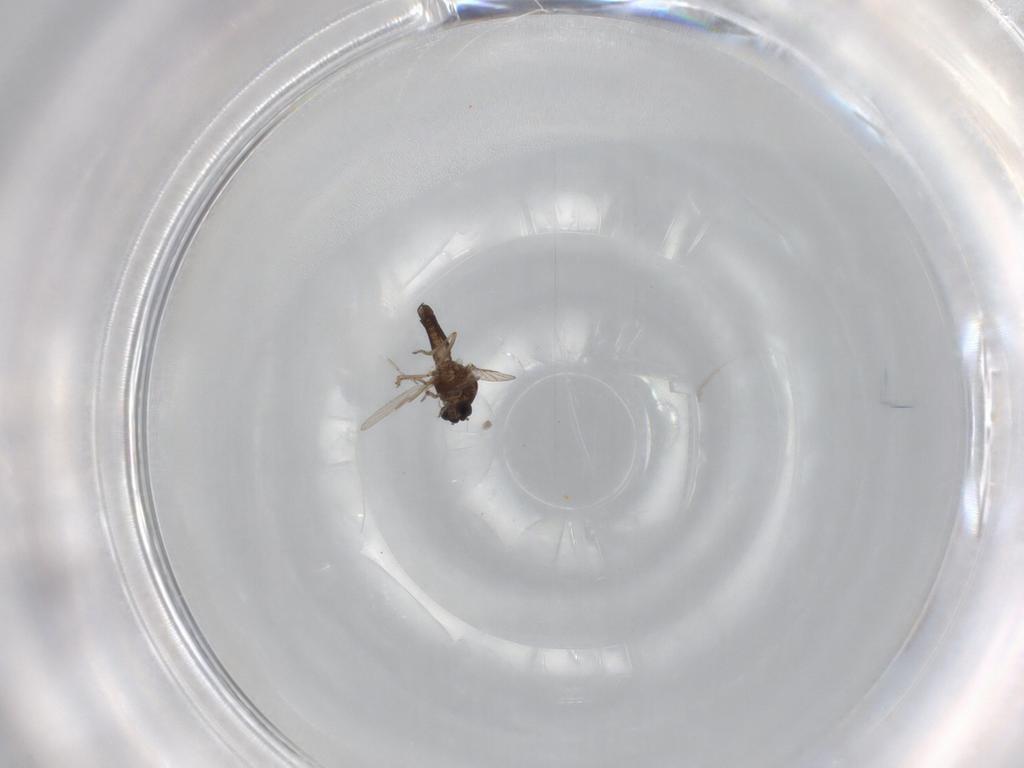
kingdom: Animalia
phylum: Arthropoda
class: Insecta
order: Diptera
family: Ceratopogonidae
